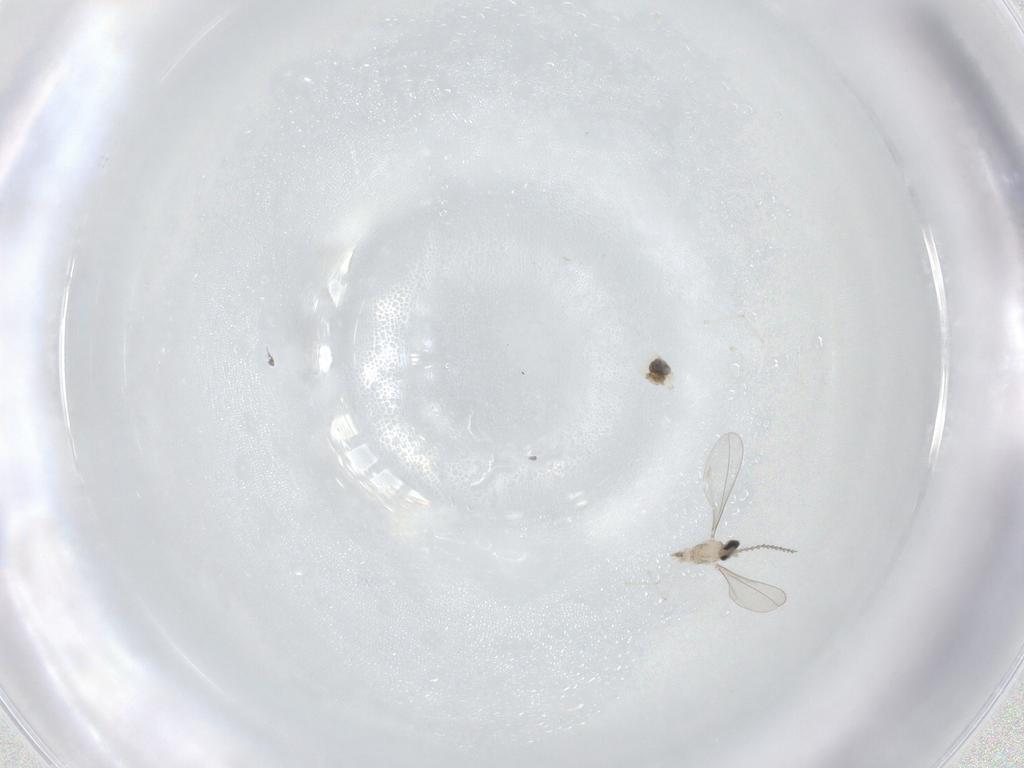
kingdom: Animalia
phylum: Arthropoda
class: Insecta
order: Diptera
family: Cecidomyiidae
